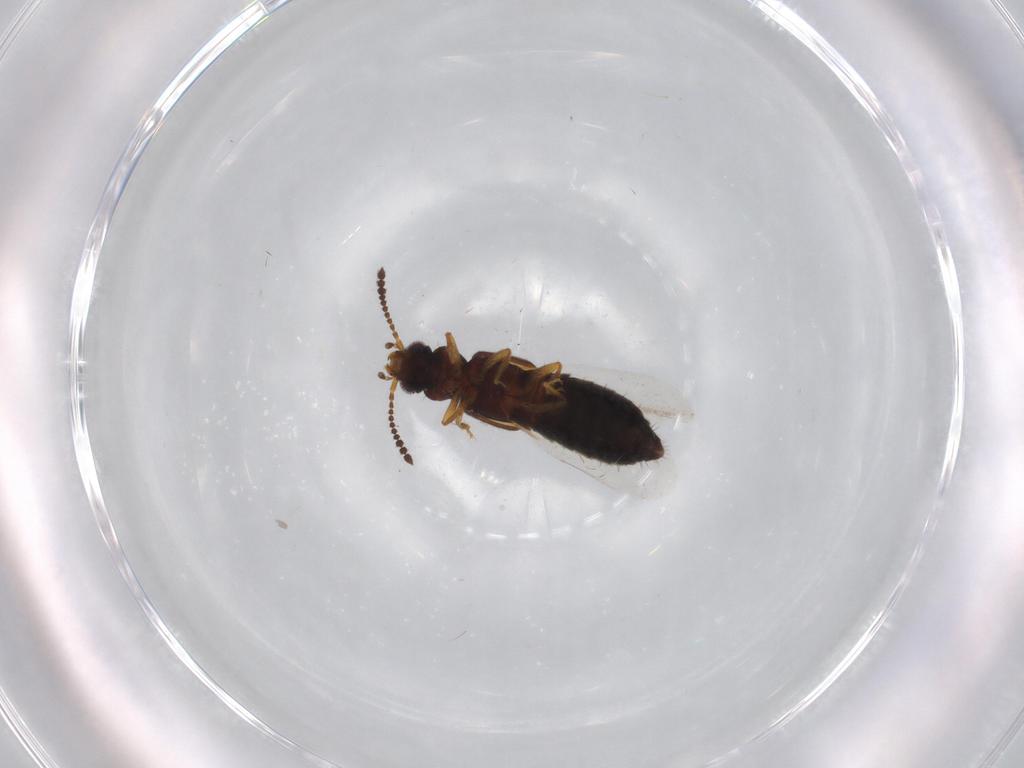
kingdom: Animalia
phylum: Arthropoda
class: Insecta
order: Coleoptera
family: Staphylinidae
